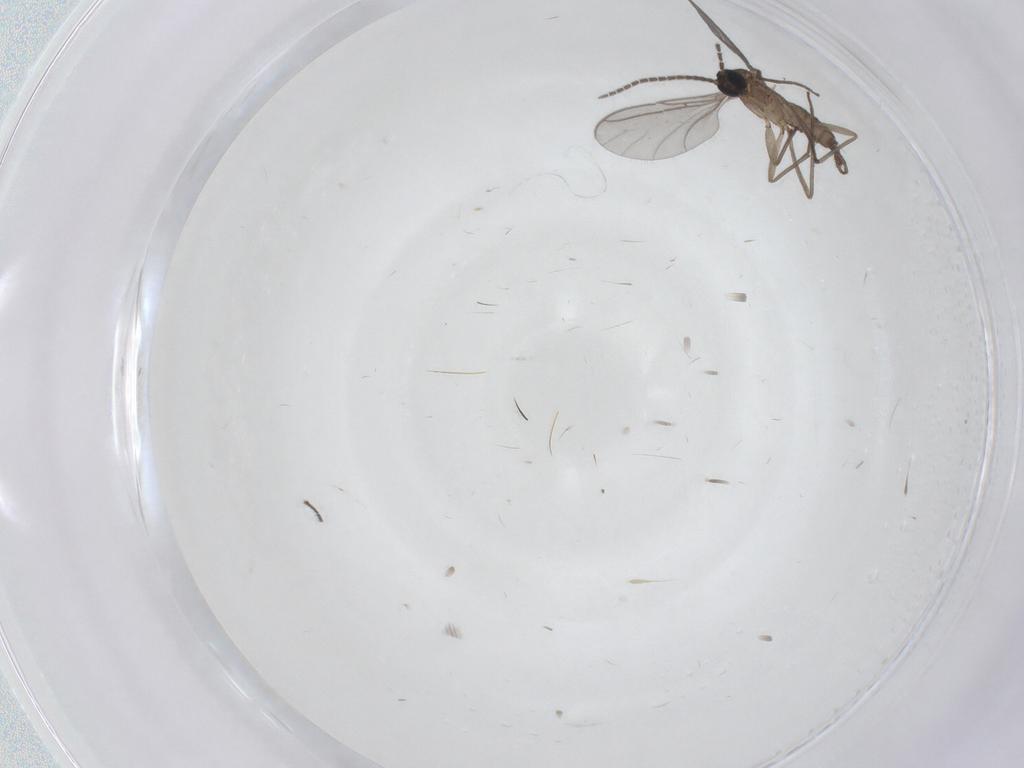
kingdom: Animalia
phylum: Arthropoda
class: Insecta
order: Diptera
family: Sciaridae
